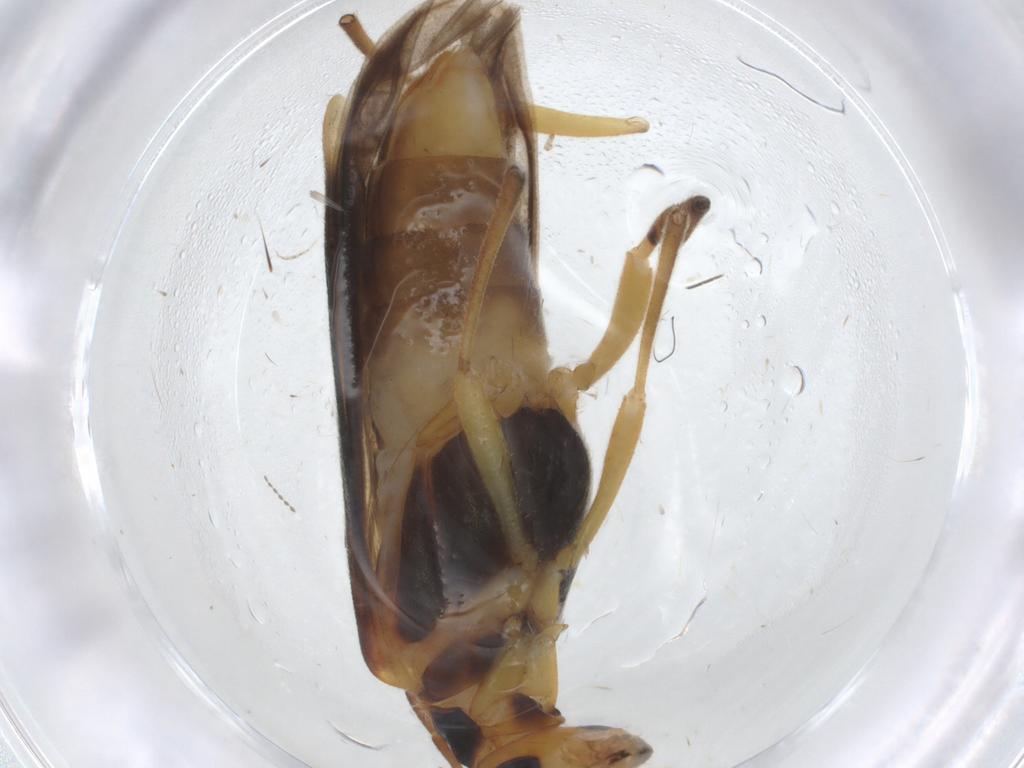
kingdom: Animalia
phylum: Arthropoda
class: Insecta
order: Coleoptera
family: Oedemeridae
